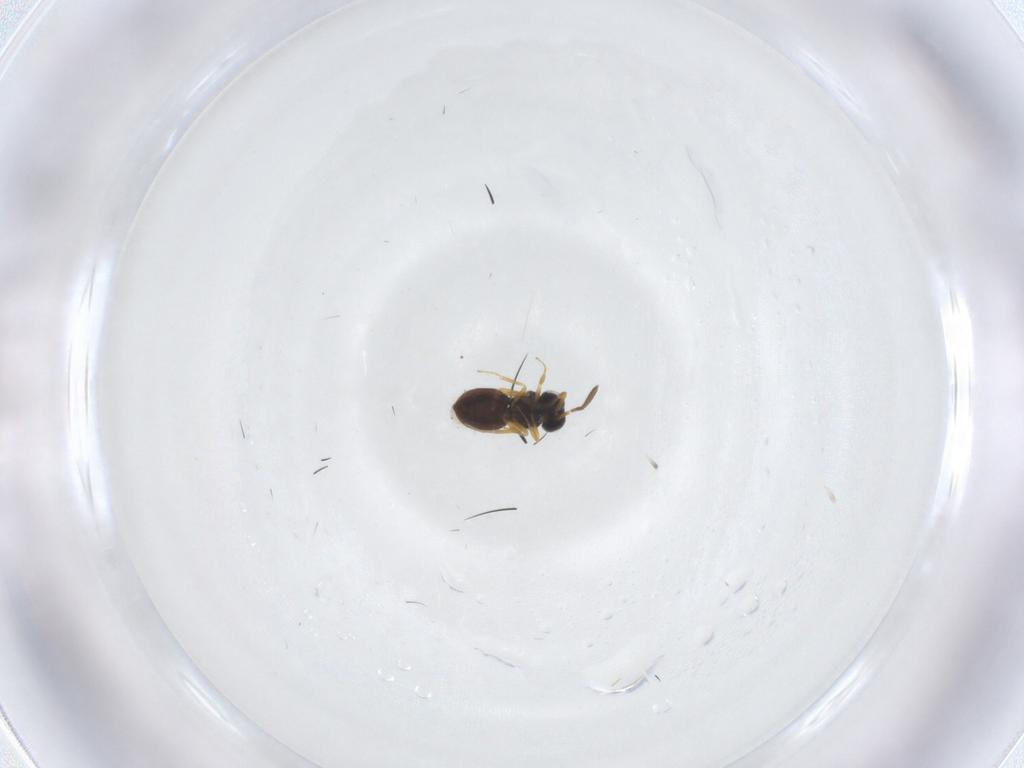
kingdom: Animalia
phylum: Arthropoda
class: Insecta
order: Hymenoptera
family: Scelionidae
